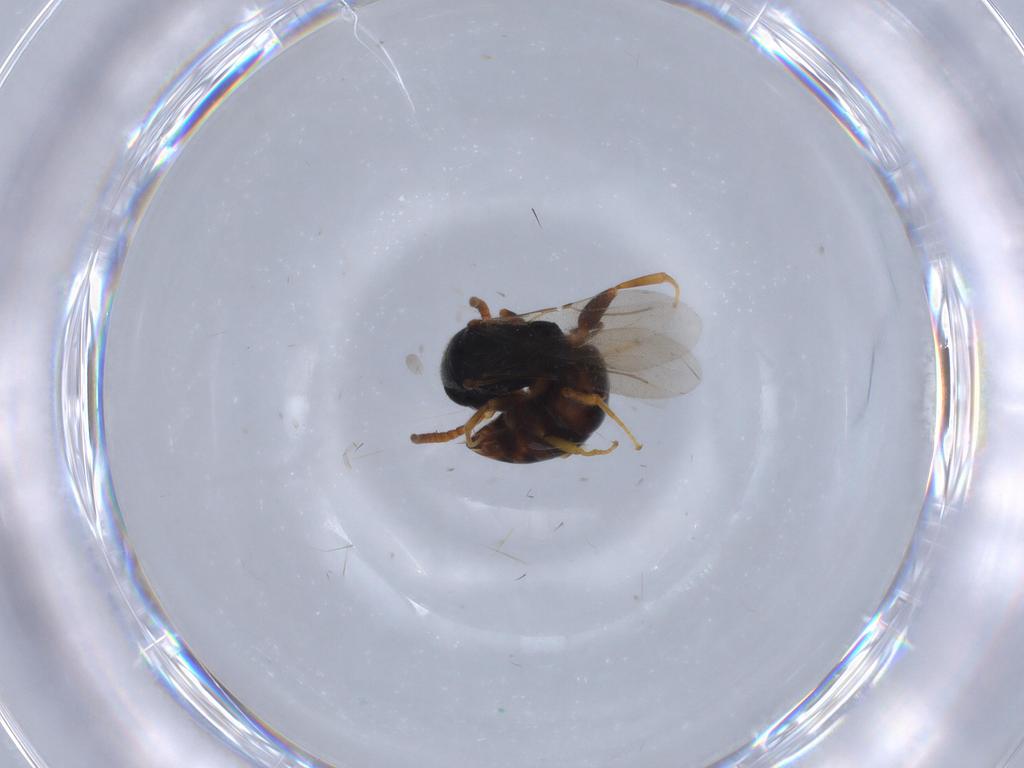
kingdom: Animalia
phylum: Arthropoda
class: Insecta
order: Hymenoptera
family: Bethylidae
